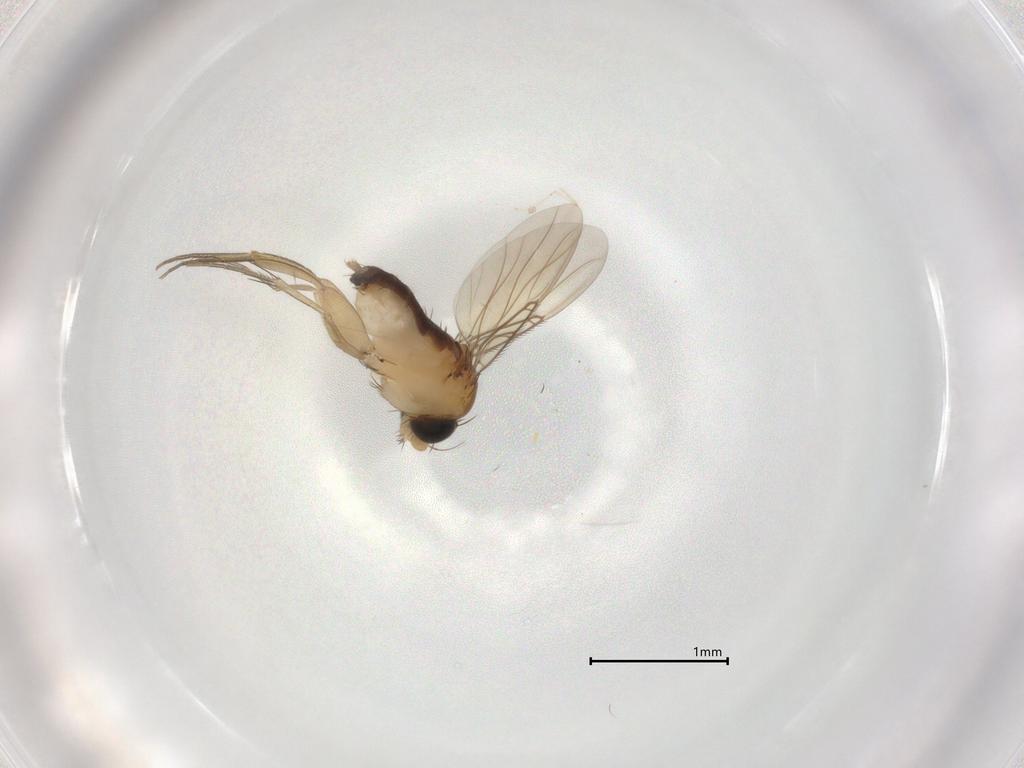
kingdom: Animalia
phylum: Arthropoda
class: Insecta
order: Diptera
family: Phoridae
